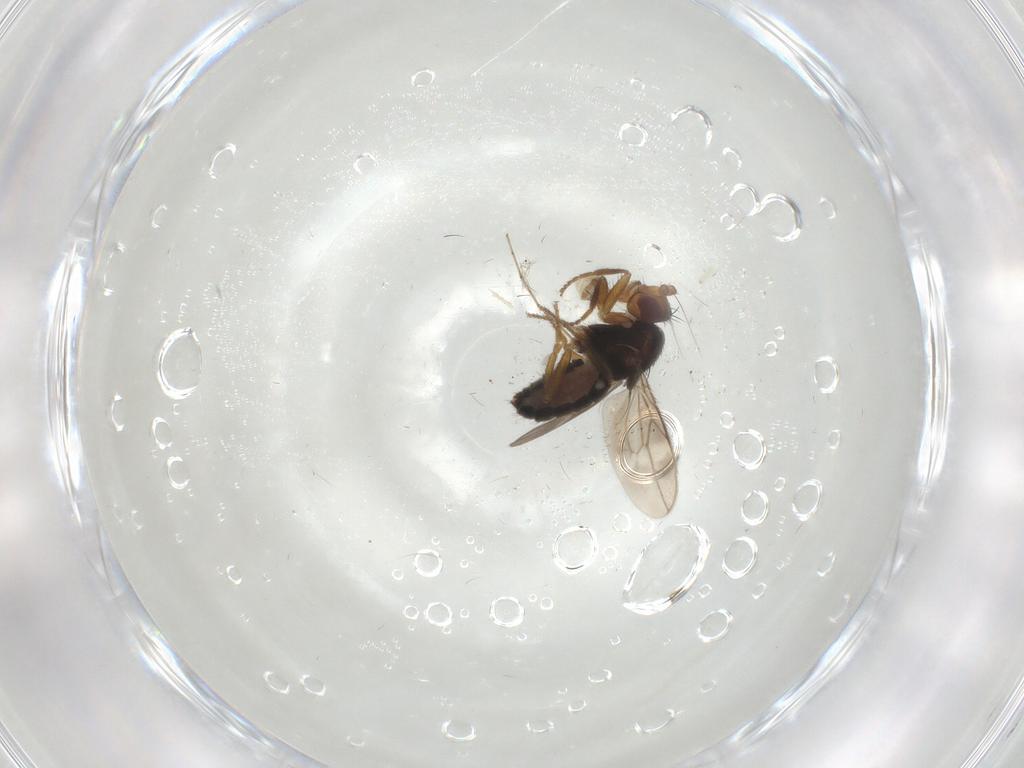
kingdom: Animalia
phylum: Arthropoda
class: Insecta
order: Diptera
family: Sphaeroceridae
